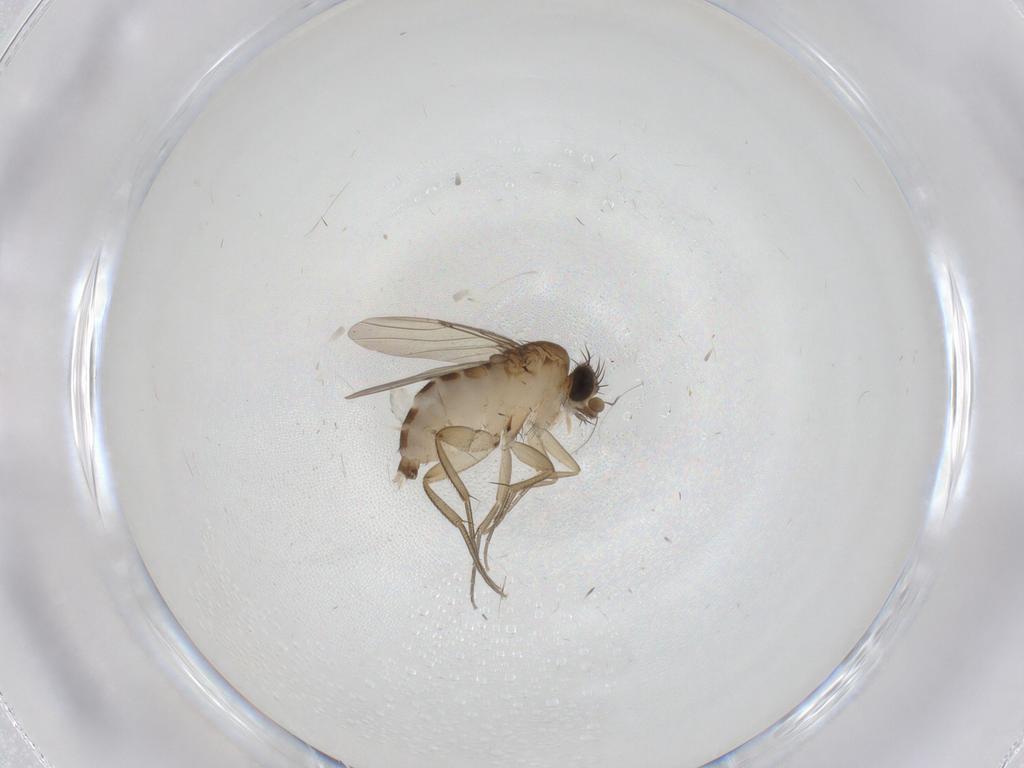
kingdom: Animalia
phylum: Arthropoda
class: Insecta
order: Diptera
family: Phoridae
